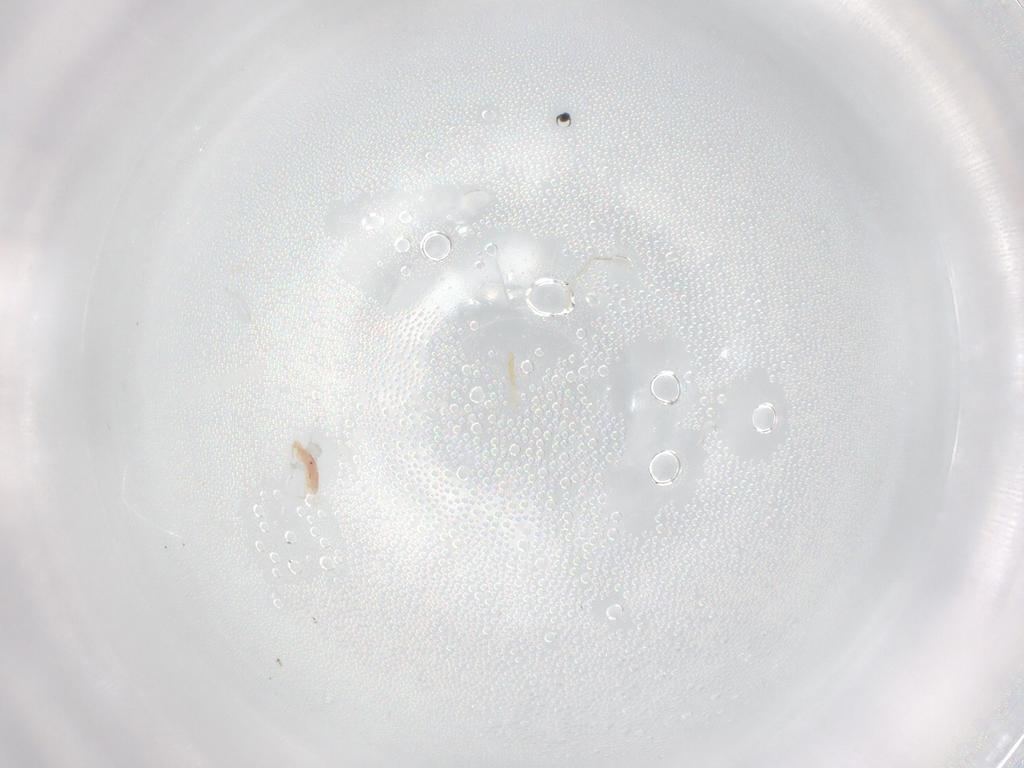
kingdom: Animalia
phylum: Arthropoda
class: Arachnida
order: Mesostigmata
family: Phytoseiidae
